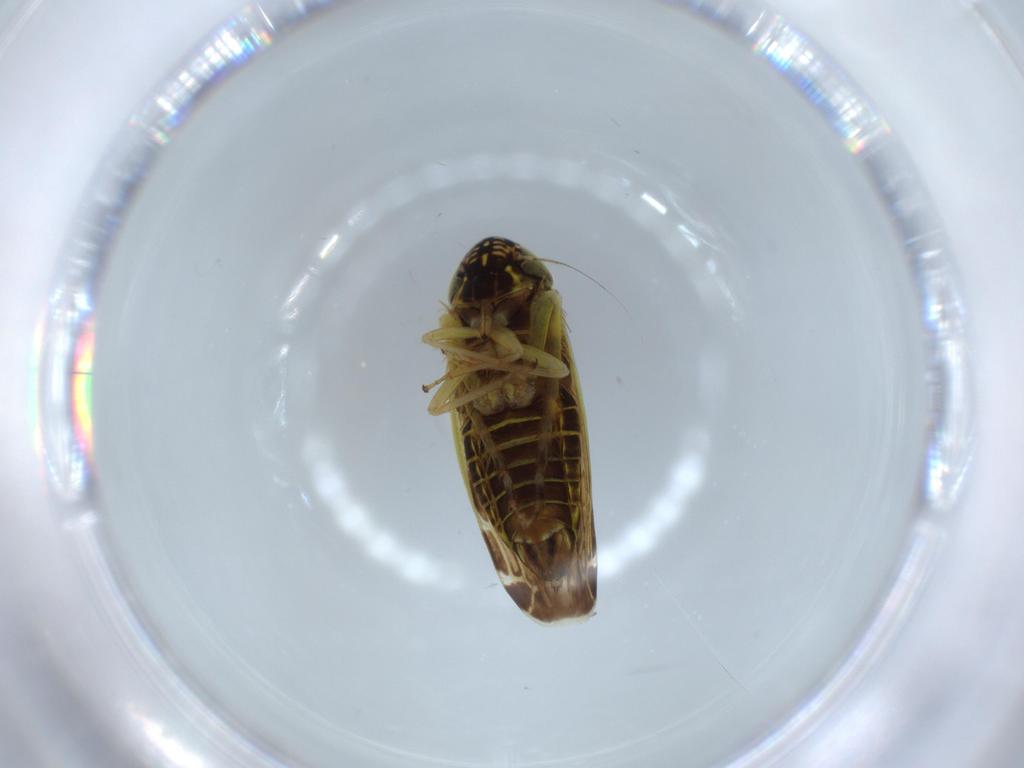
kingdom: Animalia
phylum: Arthropoda
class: Insecta
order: Hemiptera
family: Cicadellidae
